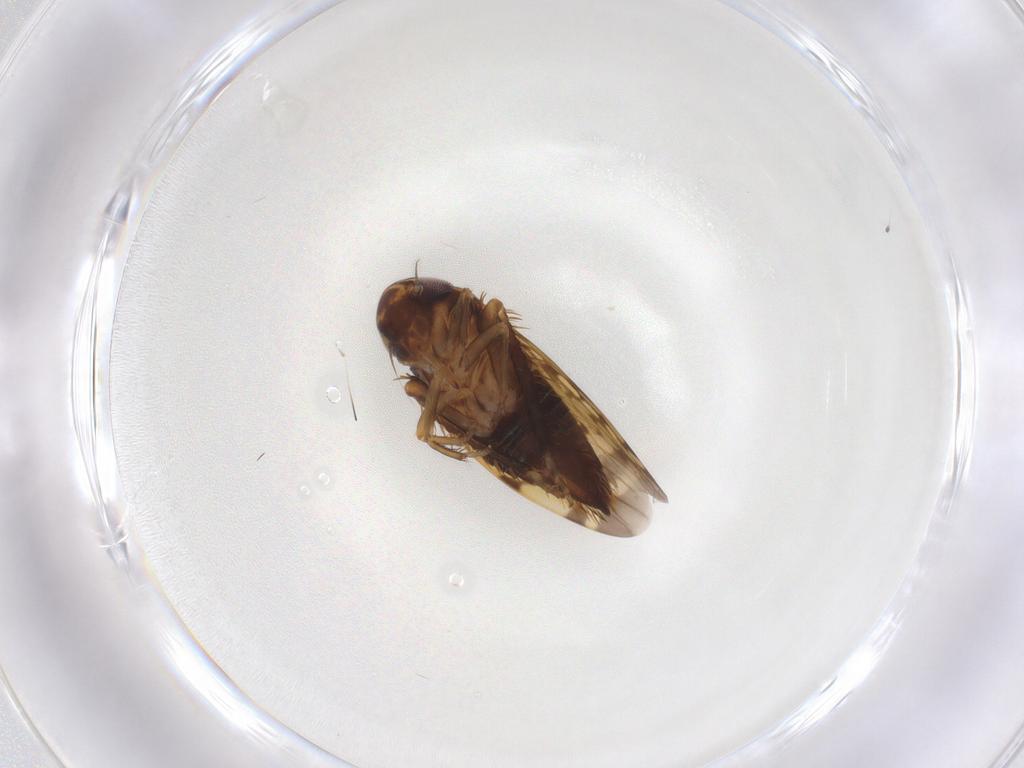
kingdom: Animalia
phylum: Arthropoda
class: Insecta
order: Hemiptera
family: Cicadellidae
